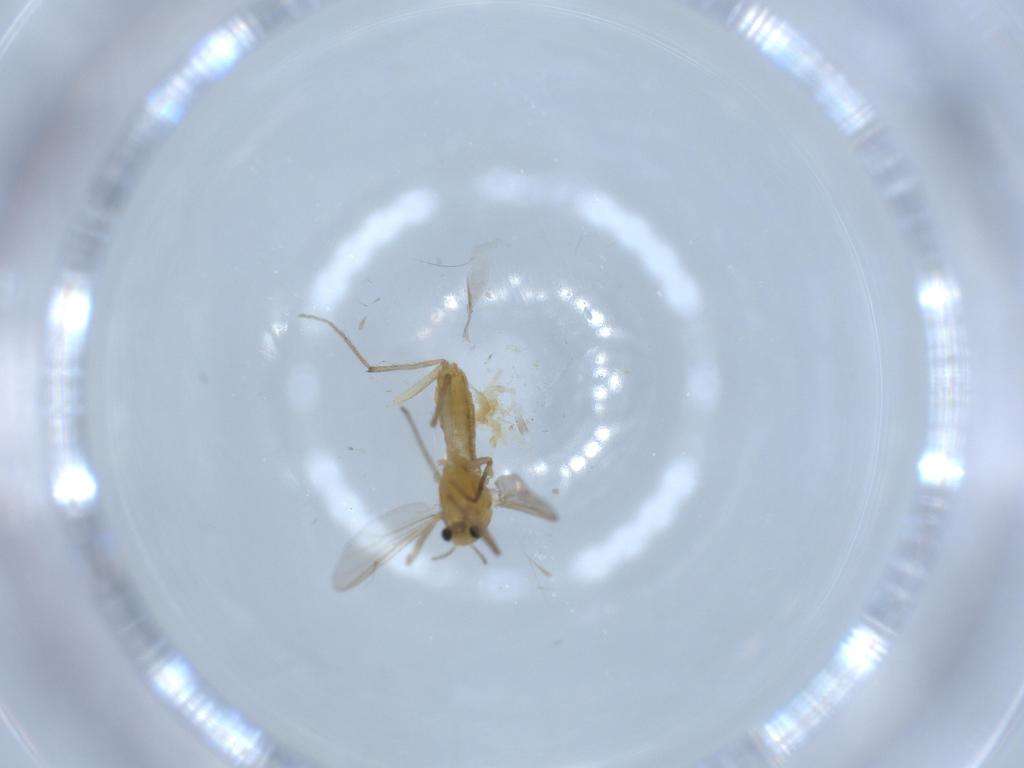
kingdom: Animalia
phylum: Arthropoda
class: Insecta
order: Diptera
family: Chironomidae
